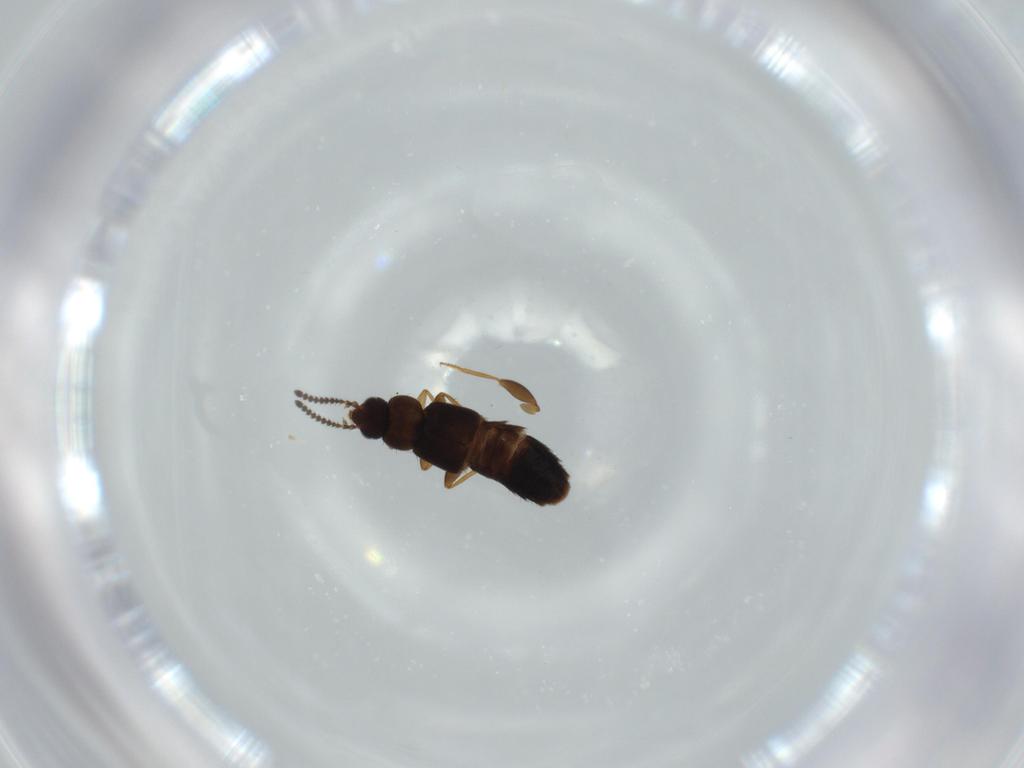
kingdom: Animalia
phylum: Arthropoda
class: Insecta
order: Coleoptera
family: Staphylinidae
